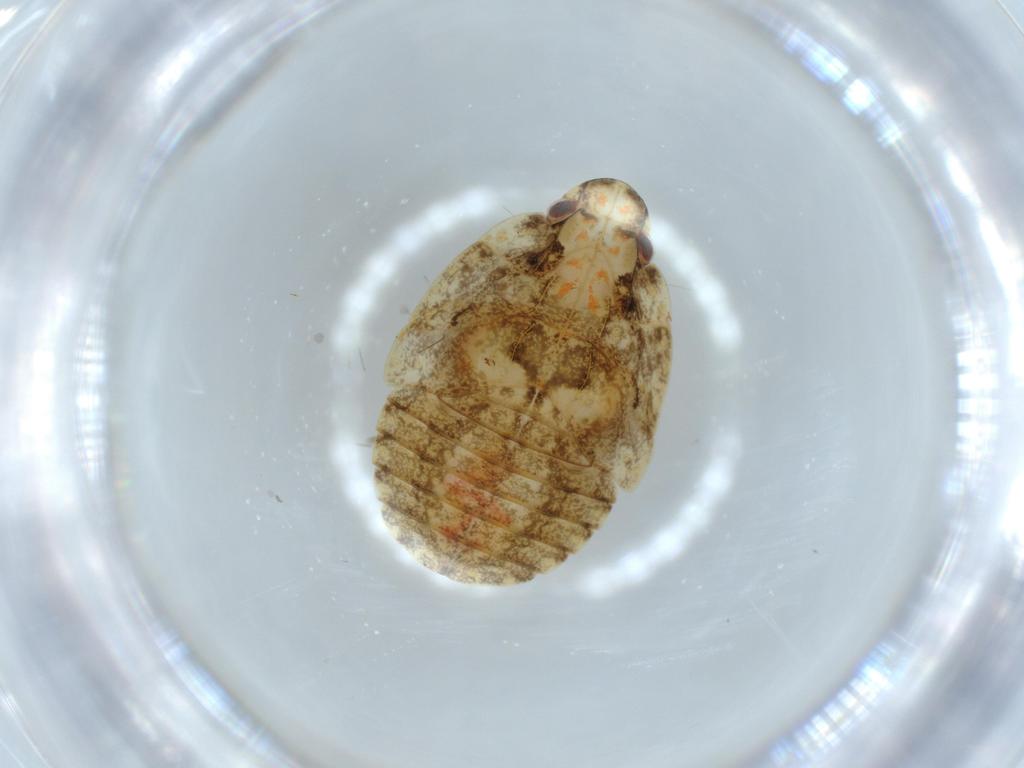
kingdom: Animalia
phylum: Arthropoda
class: Insecta
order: Hemiptera
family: Flatidae
